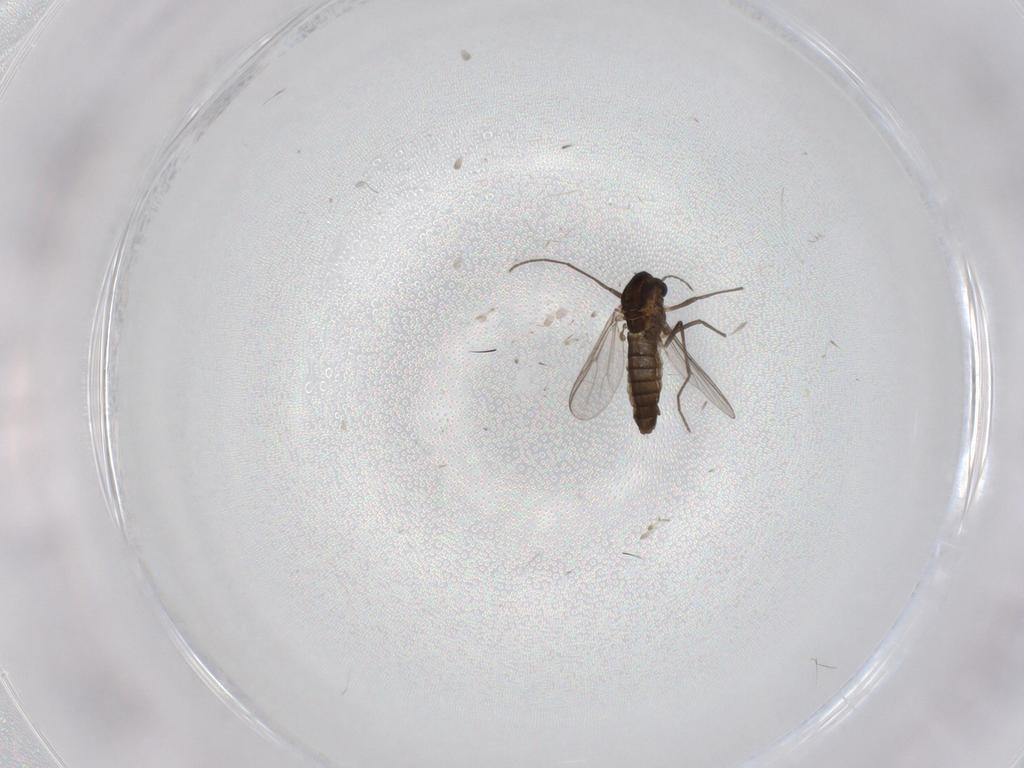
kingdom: Animalia
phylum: Arthropoda
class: Insecta
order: Diptera
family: Chironomidae
